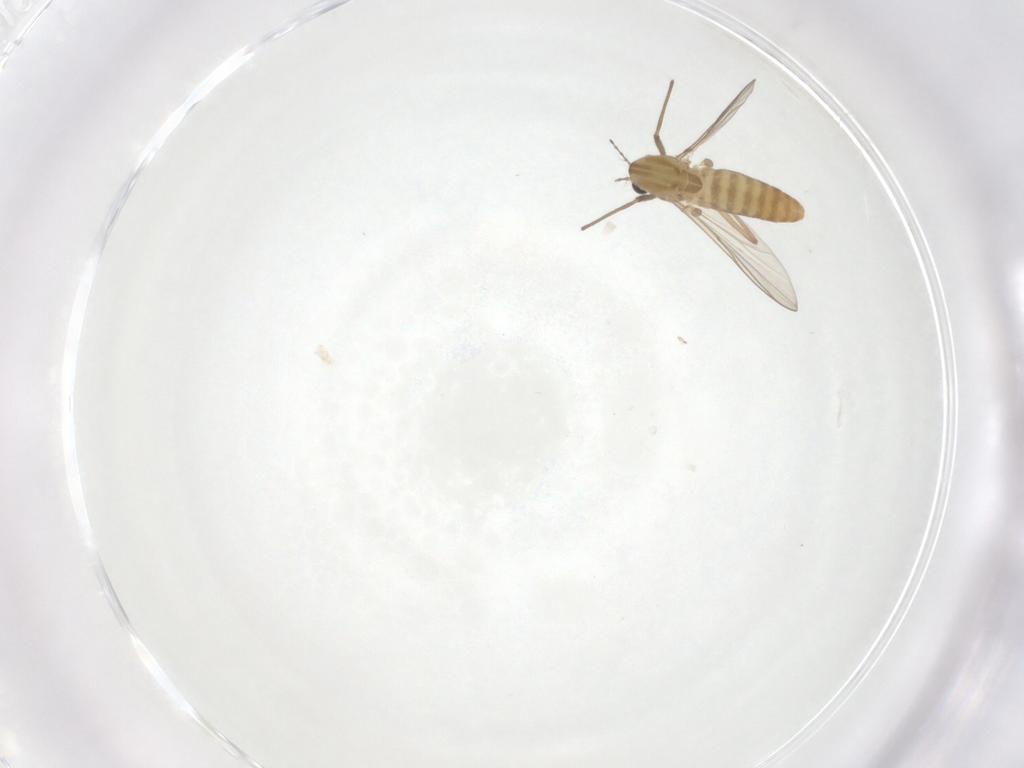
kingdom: Animalia
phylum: Arthropoda
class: Insecta
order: Diptera
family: Chironomidae
